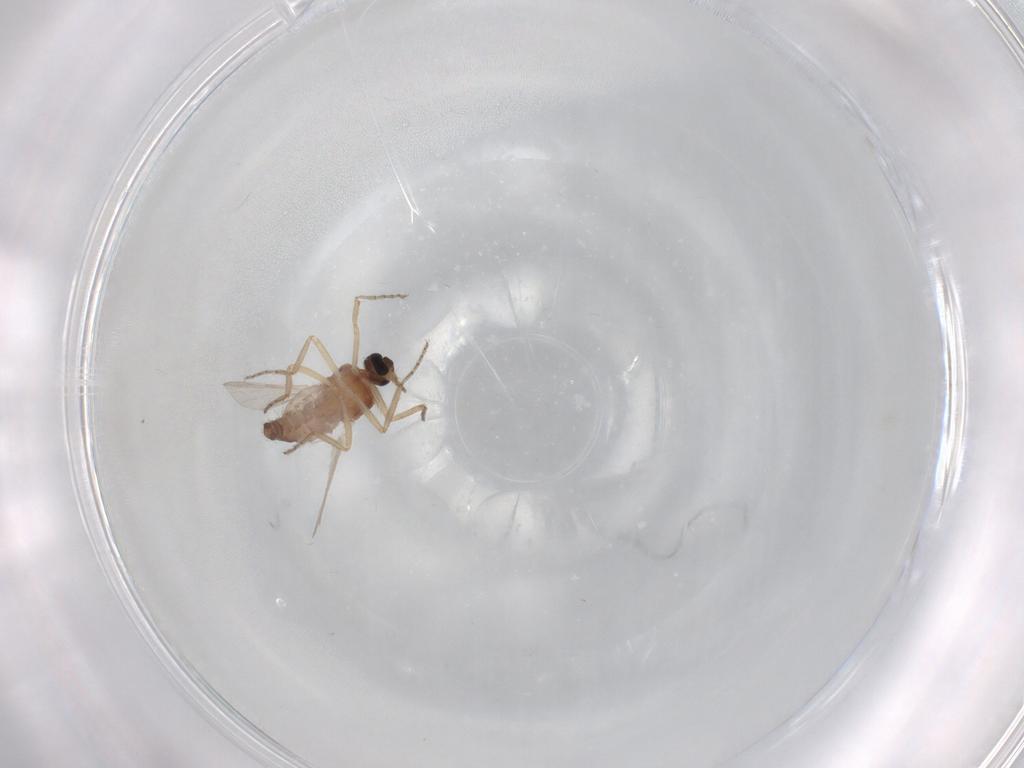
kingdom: Animalia
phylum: Arthropoda
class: Insecta
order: Diptera
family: Ceratopogonidae
